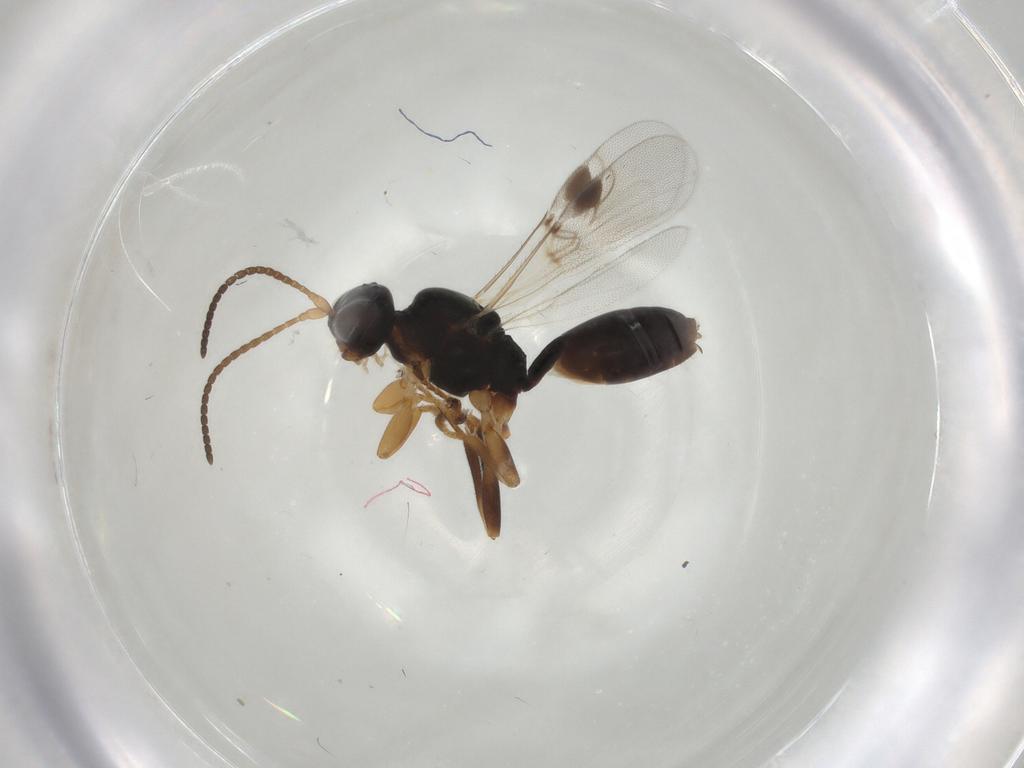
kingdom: Animalia
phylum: Arthropoda
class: Insecta
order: Hymenoptera
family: Braconidae
